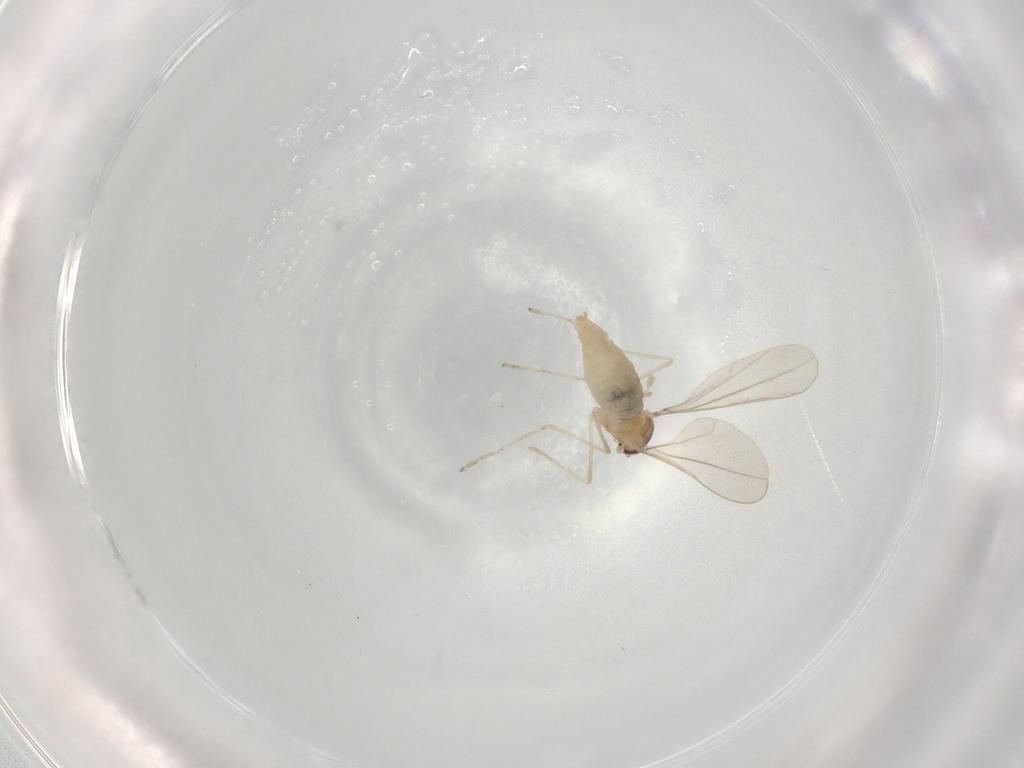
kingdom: Animalia
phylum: Arthropoda
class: Insecta
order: Diptera
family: Cecidomyiidae
